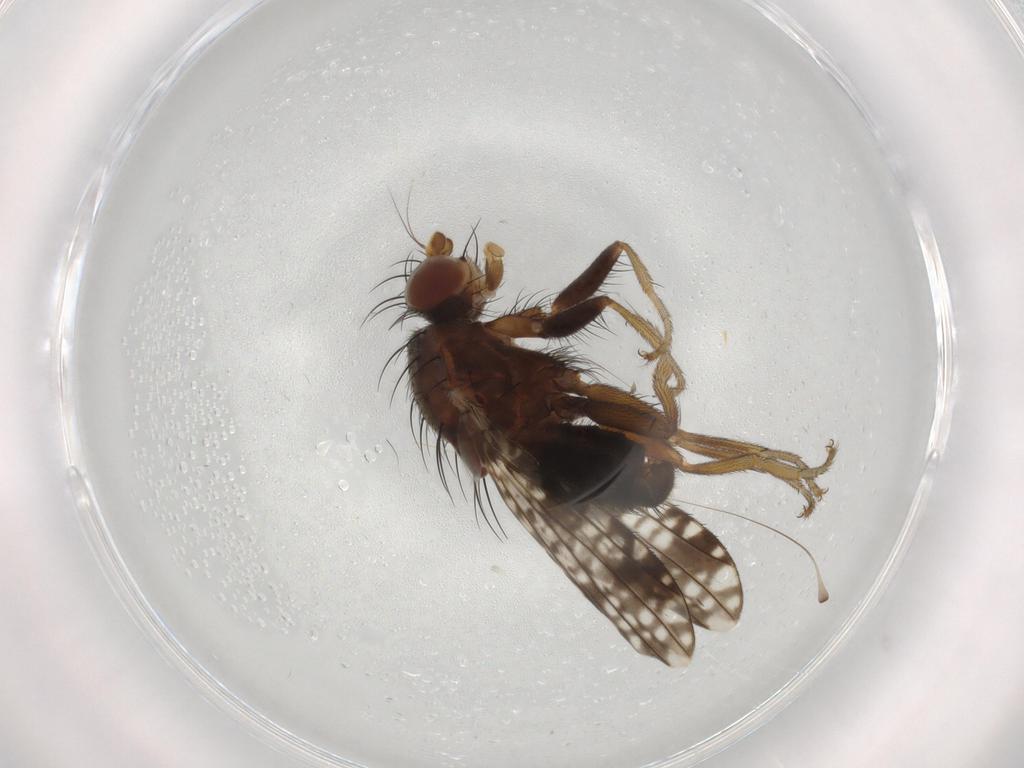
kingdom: Animalia
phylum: Arthropoda
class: Insecta
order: Diptera
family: Tephritidae
